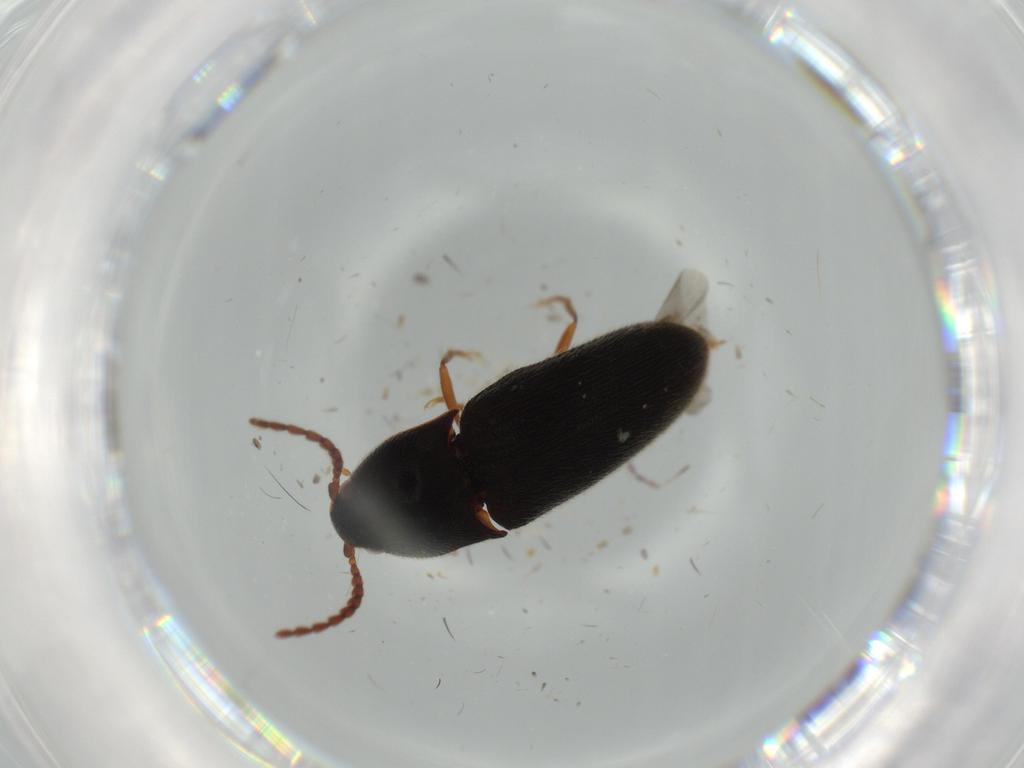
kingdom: Animalia
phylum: Arthropoda
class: Insecta
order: Coleoptera
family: Chrysomelidae
